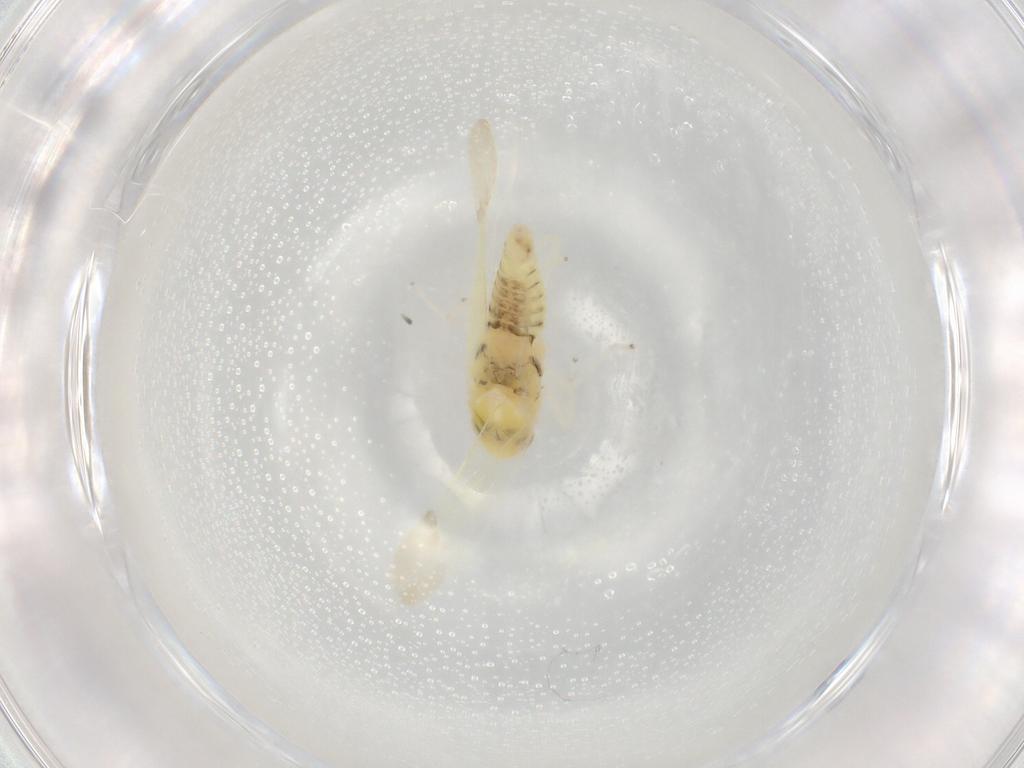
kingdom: Animalia
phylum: Arthropoda
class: Insecta
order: Hemiptera
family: Cicadellidae
